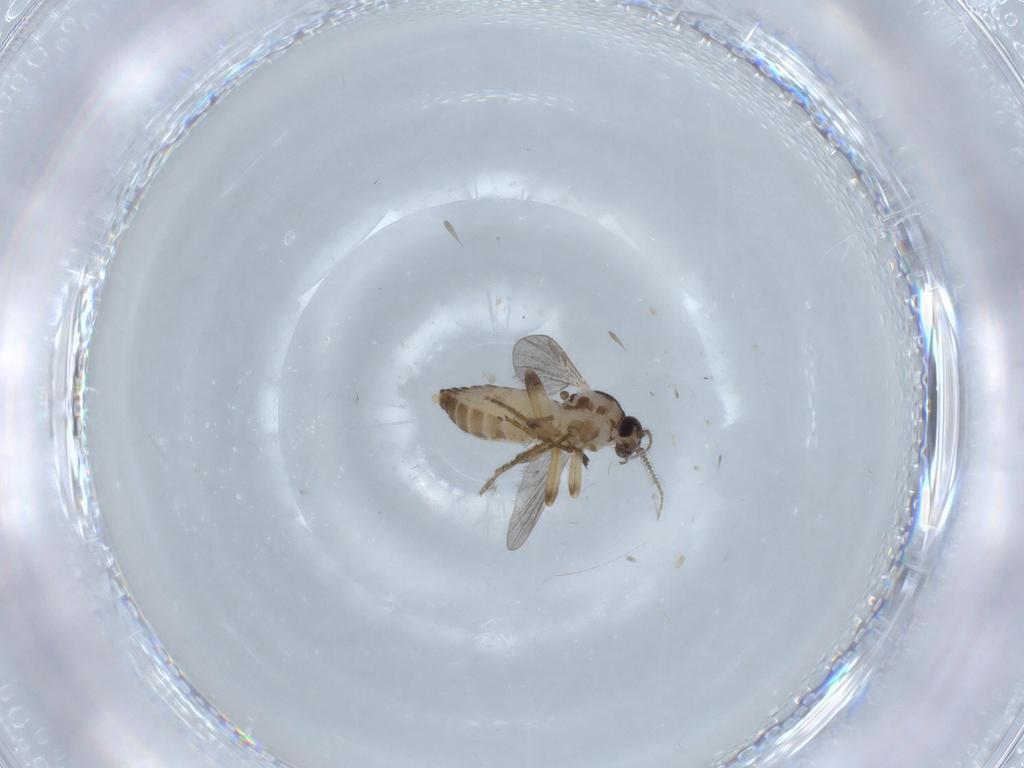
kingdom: Animalia
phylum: Arthropoda
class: Insecta
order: Diptera
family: Ceratopogonidae
